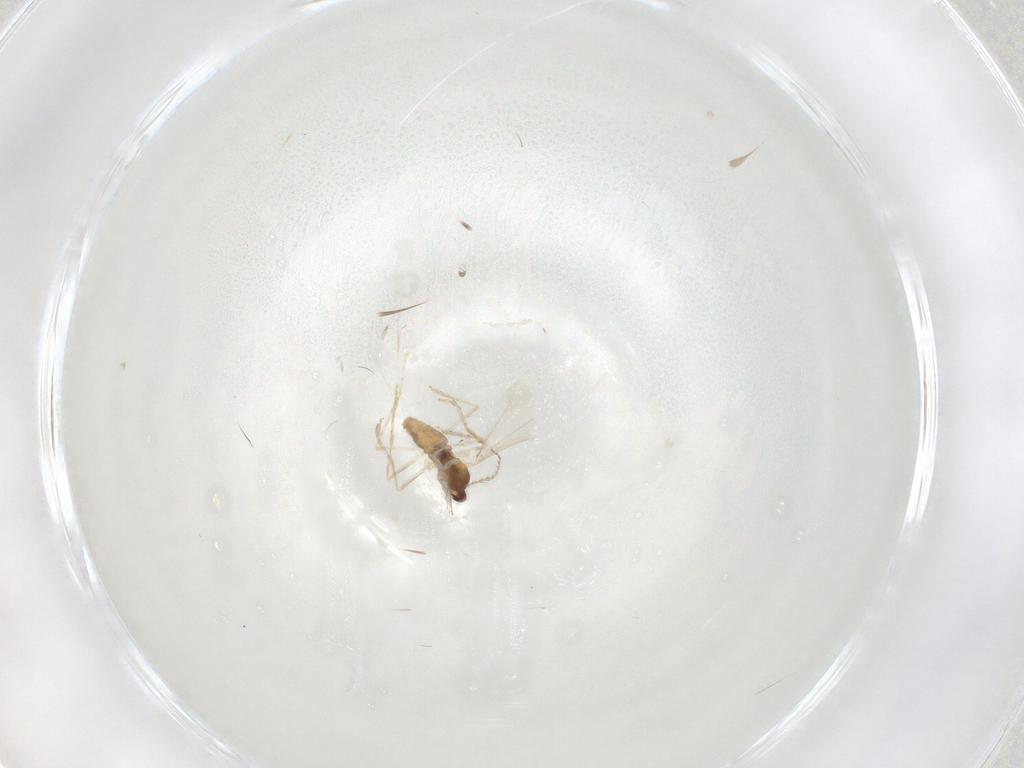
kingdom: Animalia
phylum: Arthropoda
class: Insecta
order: Diptera
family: Cecidomyiidae
